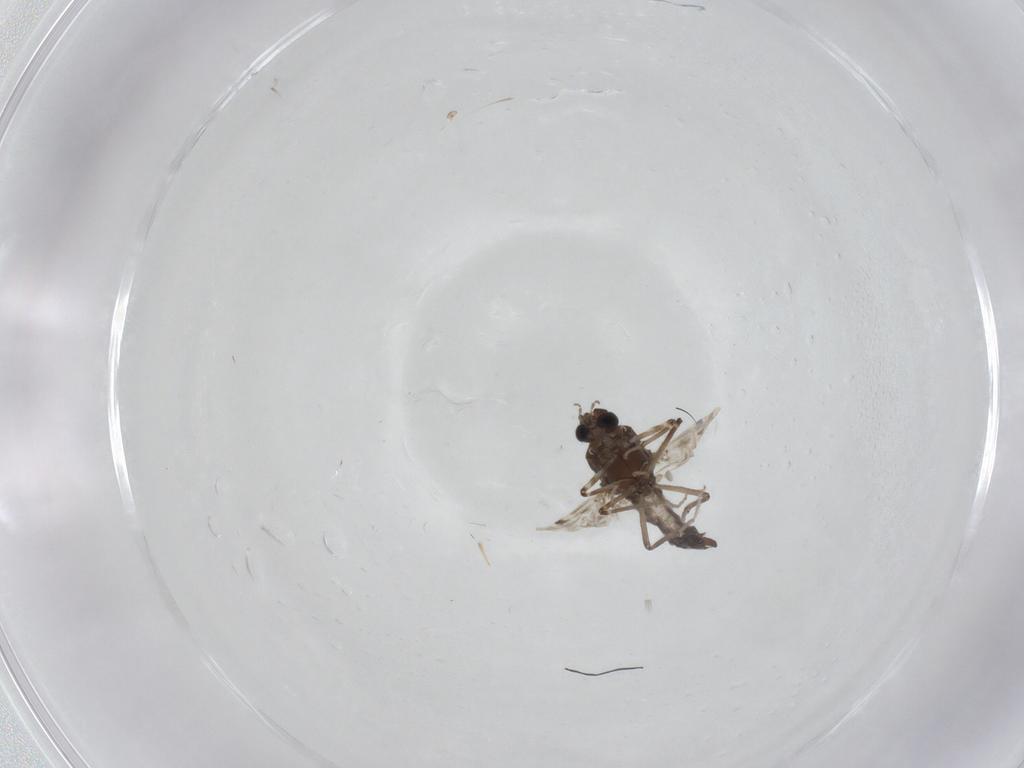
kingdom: Animalia
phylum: Arthropoda
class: Insecta
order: Diptera
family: Ceratopogonidae
